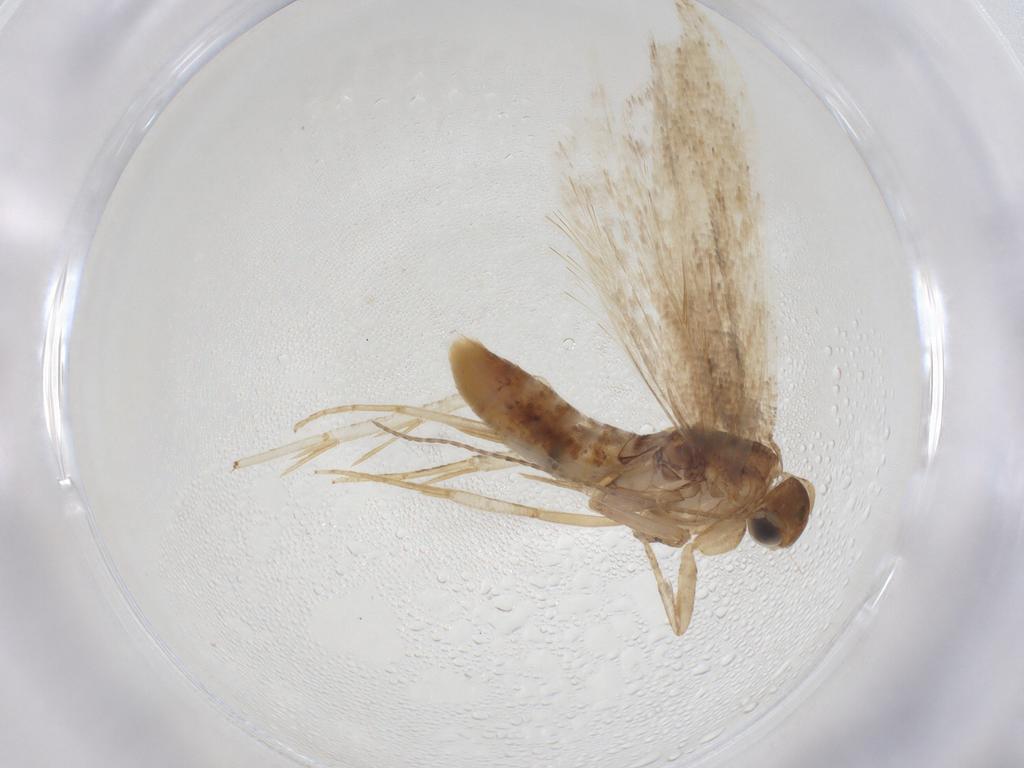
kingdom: Animalia
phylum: Arthropoda
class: Insecta
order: Lepidoptera
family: Gelechiidae
